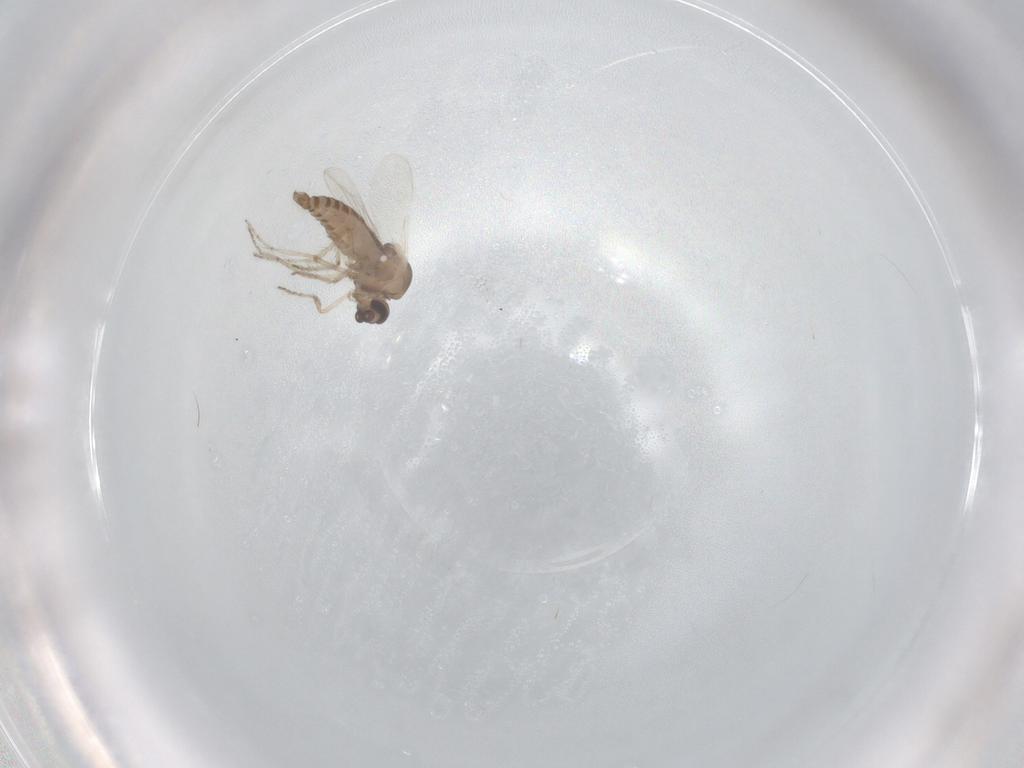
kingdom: Animalia
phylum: Arthropoda
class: Insecta
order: Diptera
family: Ceratopogonidae
